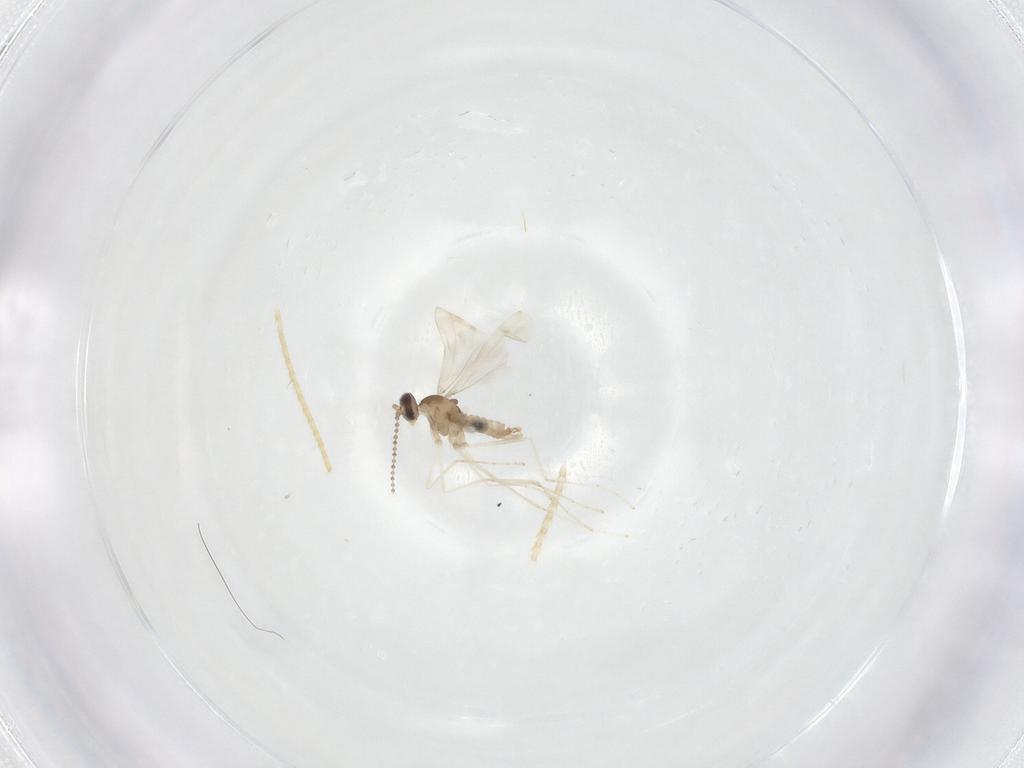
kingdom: Animalia
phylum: Arthropoda
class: Insecta
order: Diptera
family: Cecidomyiidae
